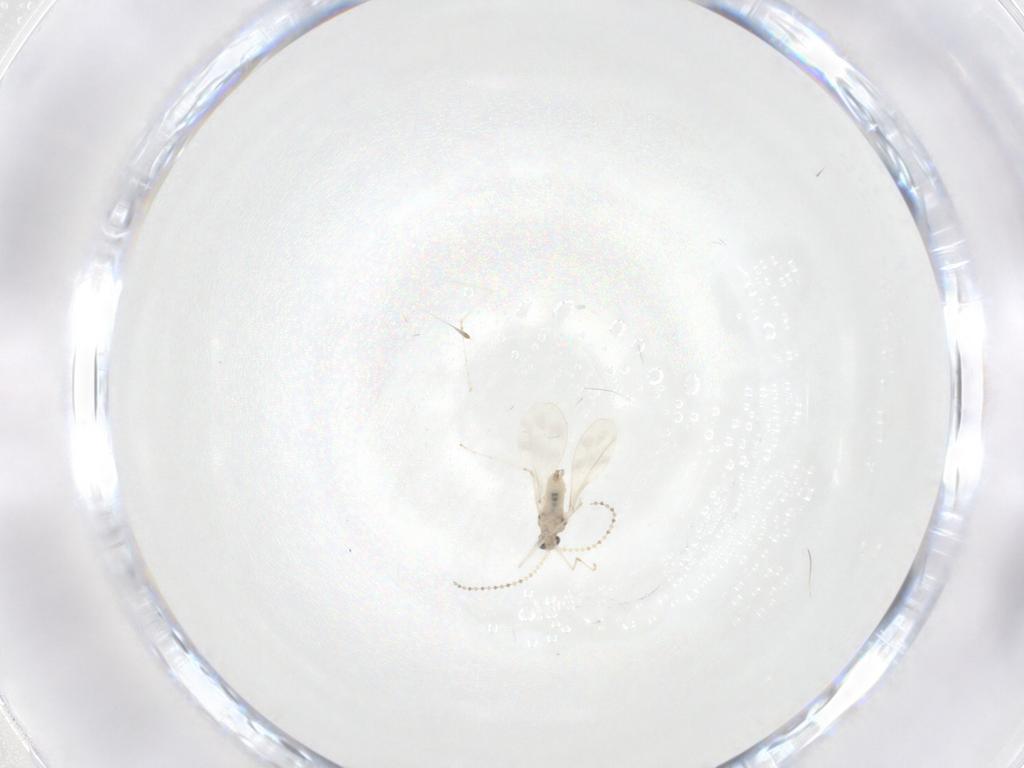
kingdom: Animalia
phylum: Arthropoda
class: Insecta
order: Diptera
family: Cecidomyiidae
